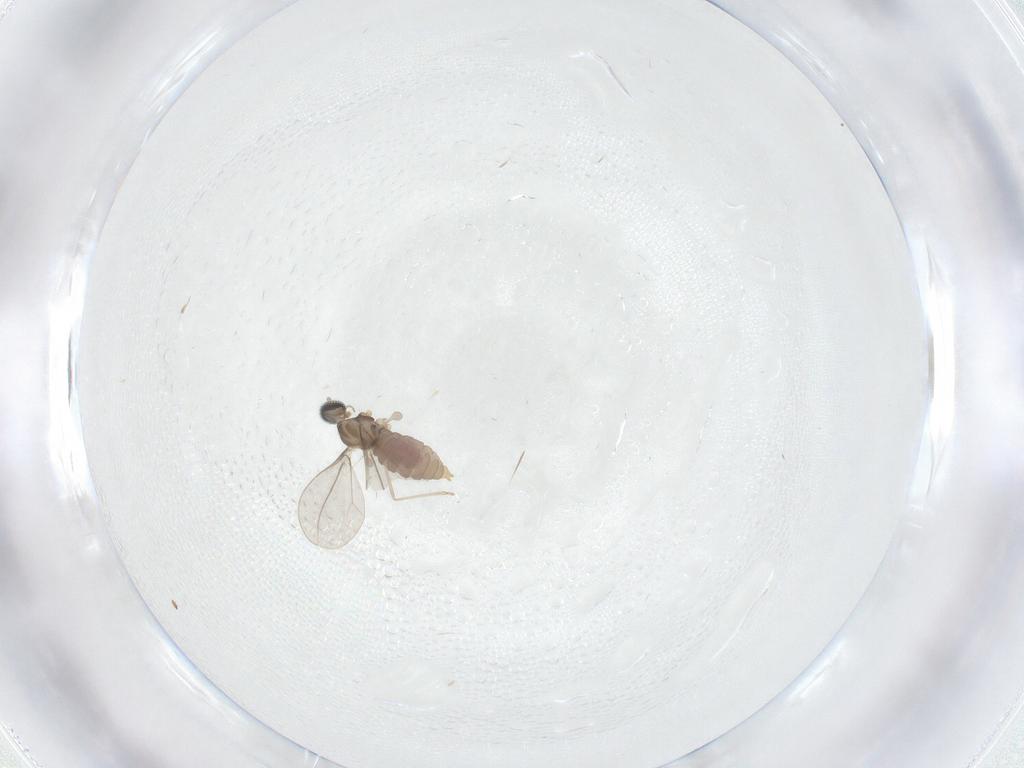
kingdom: Animalia
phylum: Arthropoda
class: Insecta
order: Diptera
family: Cecidomyiidae
